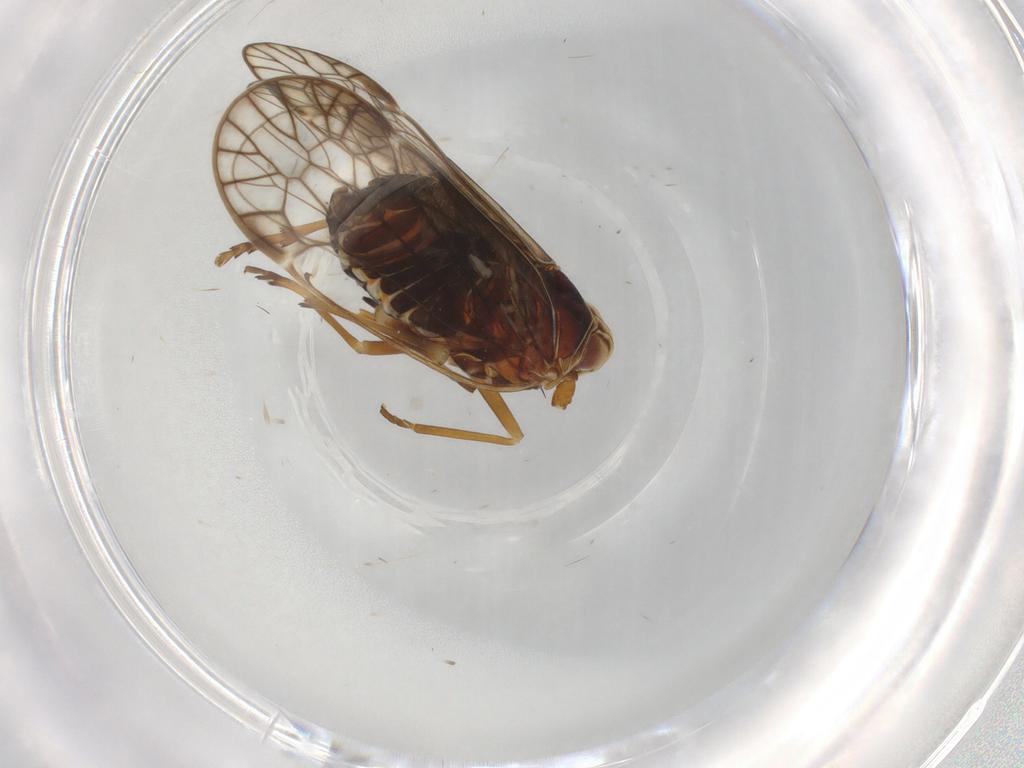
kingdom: Animalia
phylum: Arthropoda
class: Insecta
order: Hemiptera
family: Kinnaridae
